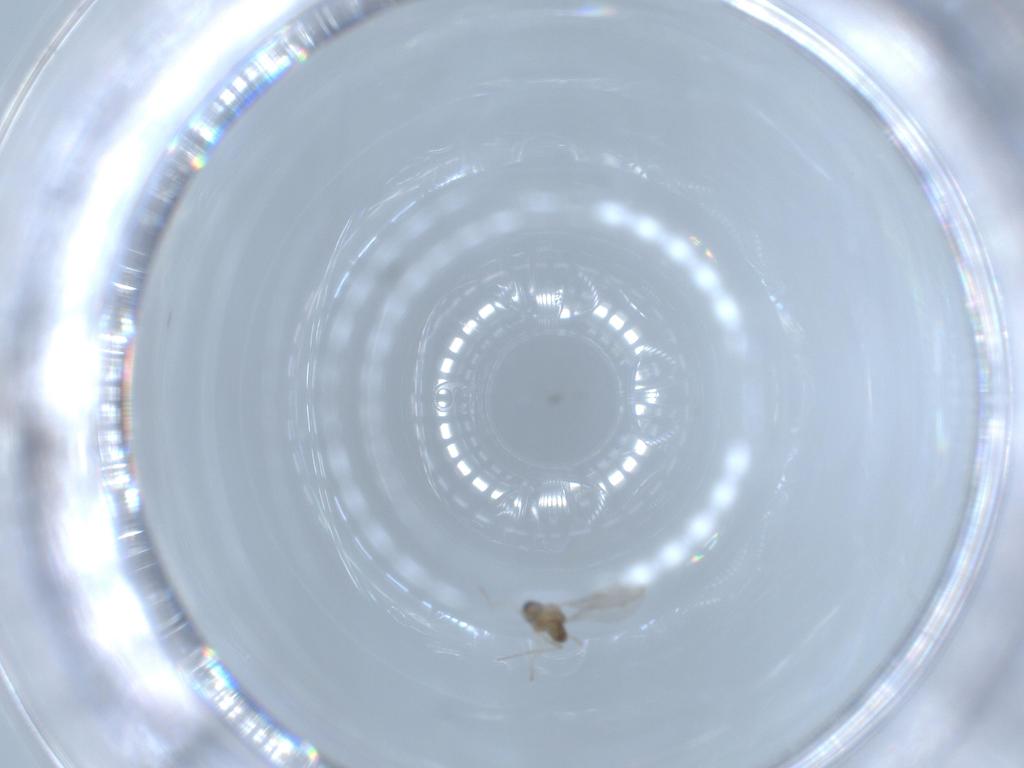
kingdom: Animalia
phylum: Arthropoda
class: Insecta
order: Diptera
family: Cecidomyiidae
